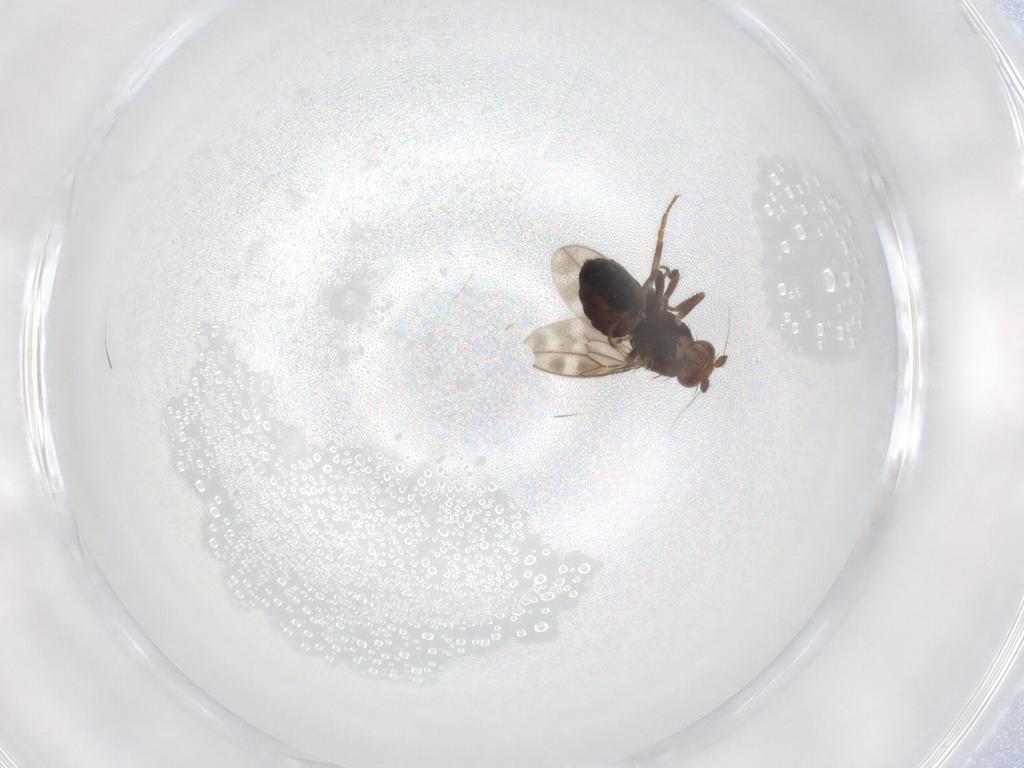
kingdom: Animalia
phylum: Arthropoda
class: Insecta
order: Diptera
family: Sphaeroceridae
